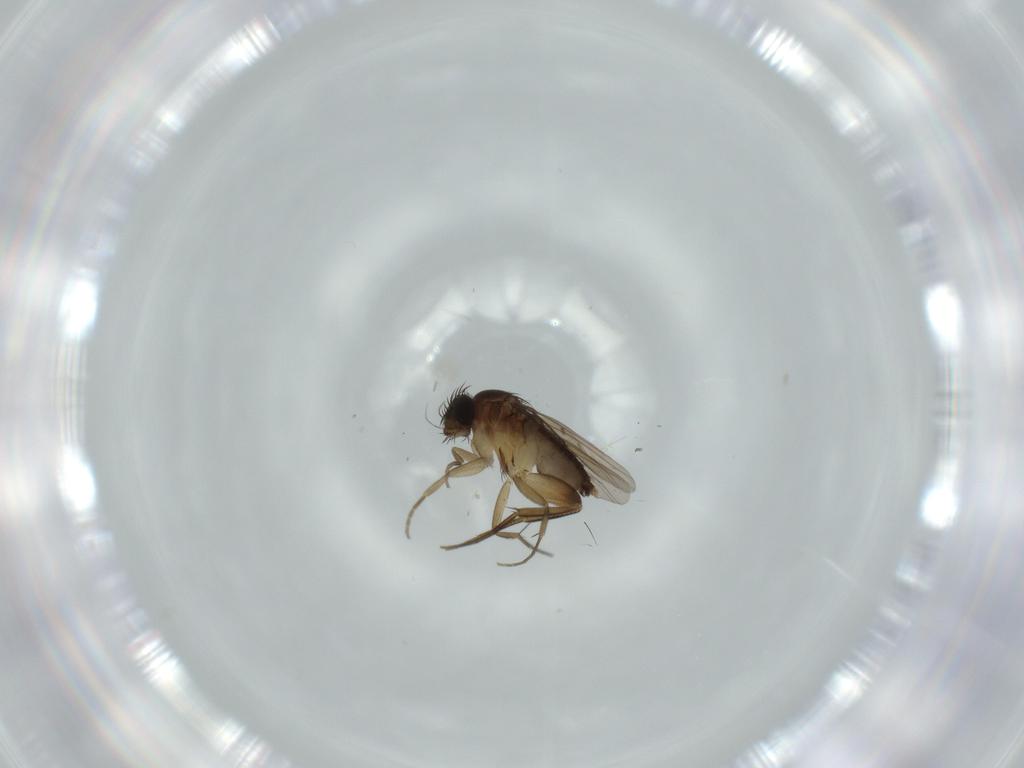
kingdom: Animalia
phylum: Arthropoda
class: Insecta
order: Diptera
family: Phoridae
